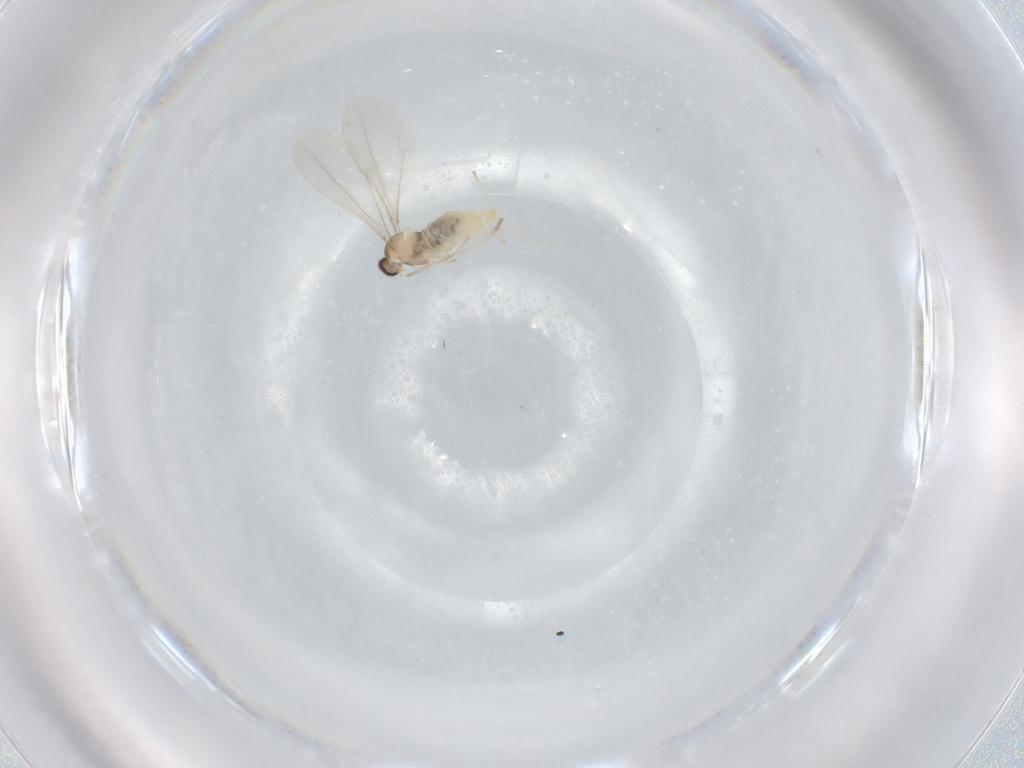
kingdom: Animalia
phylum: Arthropoda
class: Insecta
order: Diptera
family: Cecidomyiidae
